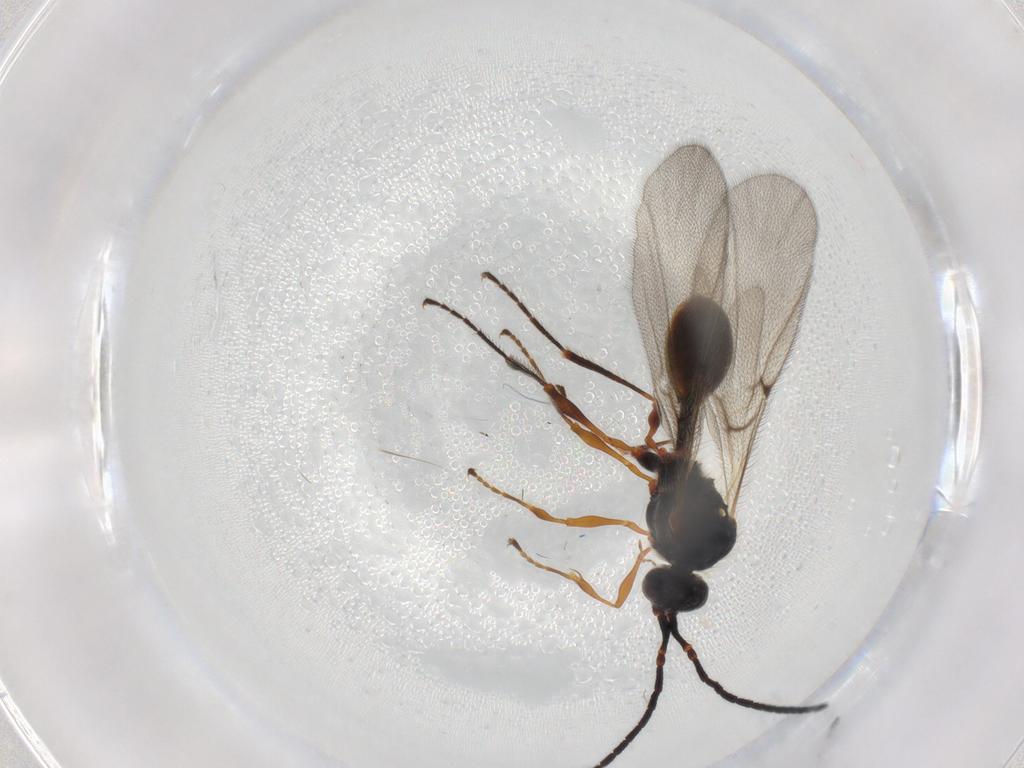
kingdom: Animalia
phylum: Arthropoda
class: Insecta
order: Hymenoptera
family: Diapriidae
